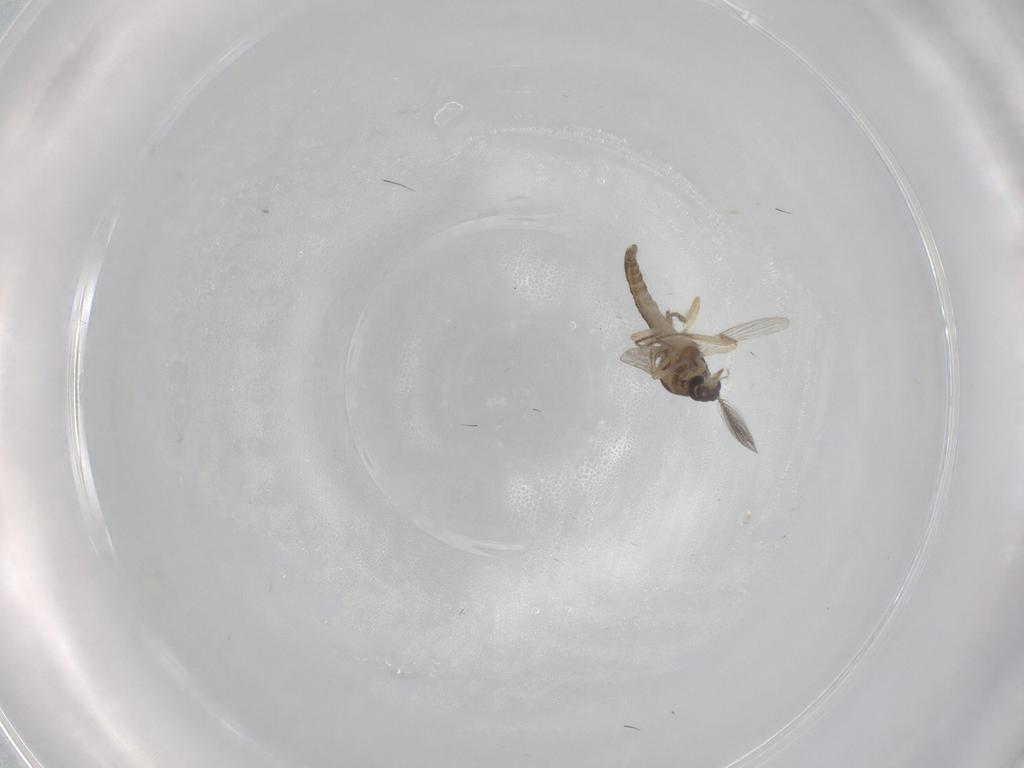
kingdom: Animalia
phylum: Arthropoda
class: Insecta
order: Diptera
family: Ceratopogonidae
